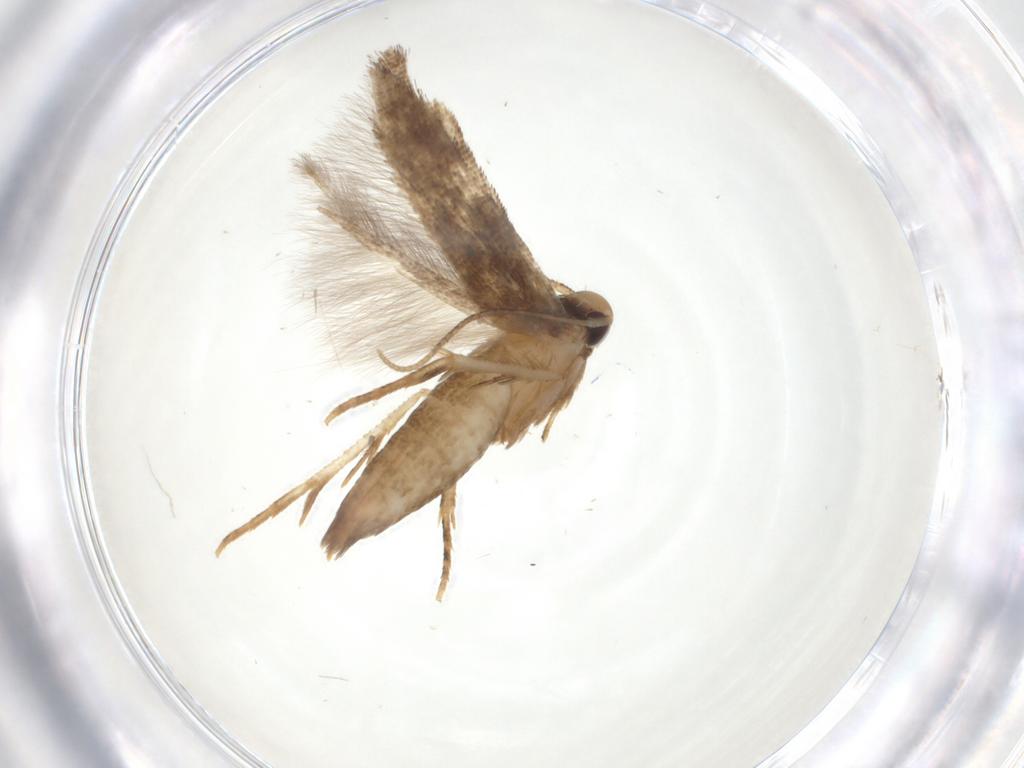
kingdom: Animalia
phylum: Arthropoda
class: Insecta
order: Lepidoptera
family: Cosmopterigidae
